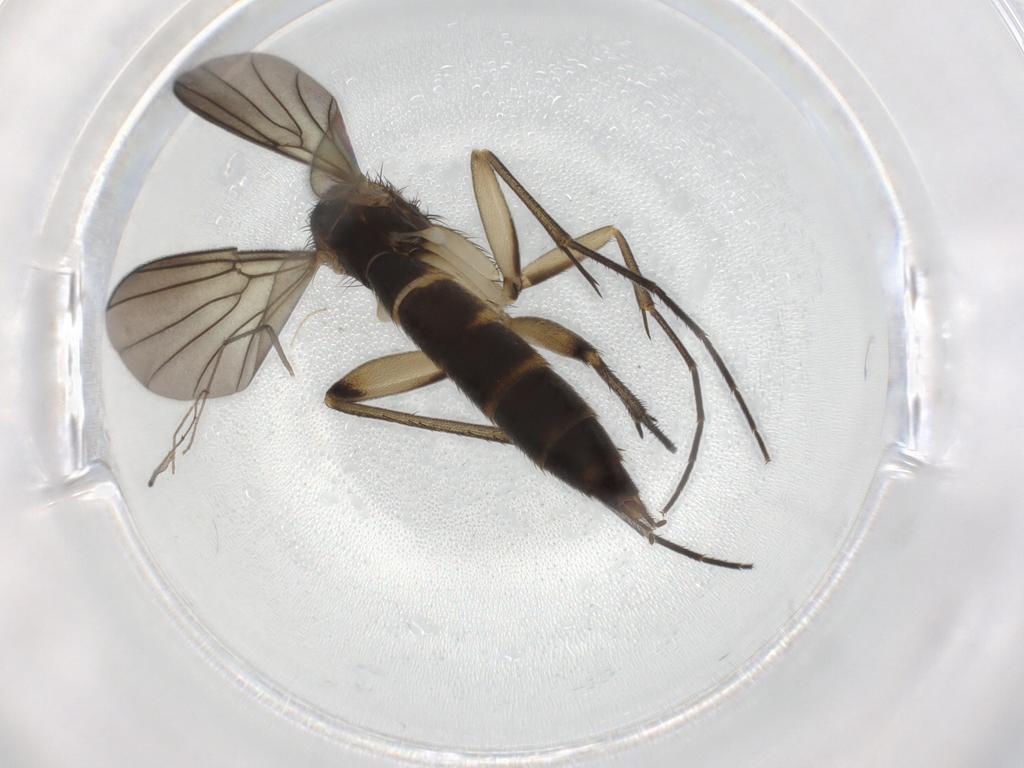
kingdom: Animalia
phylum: Arthropoda
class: Insecta
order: Diptera
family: Mycetophilidae
